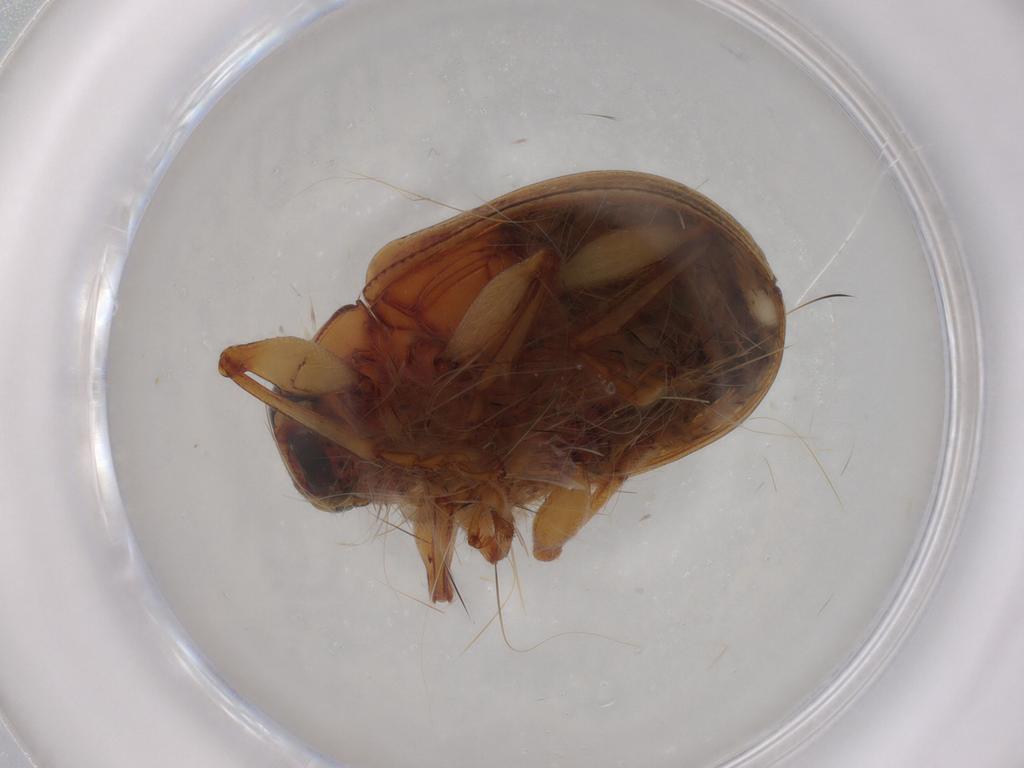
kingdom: Animalia
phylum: Arthropoda
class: Insecta
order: Coleoptera
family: Chrysomelidae
